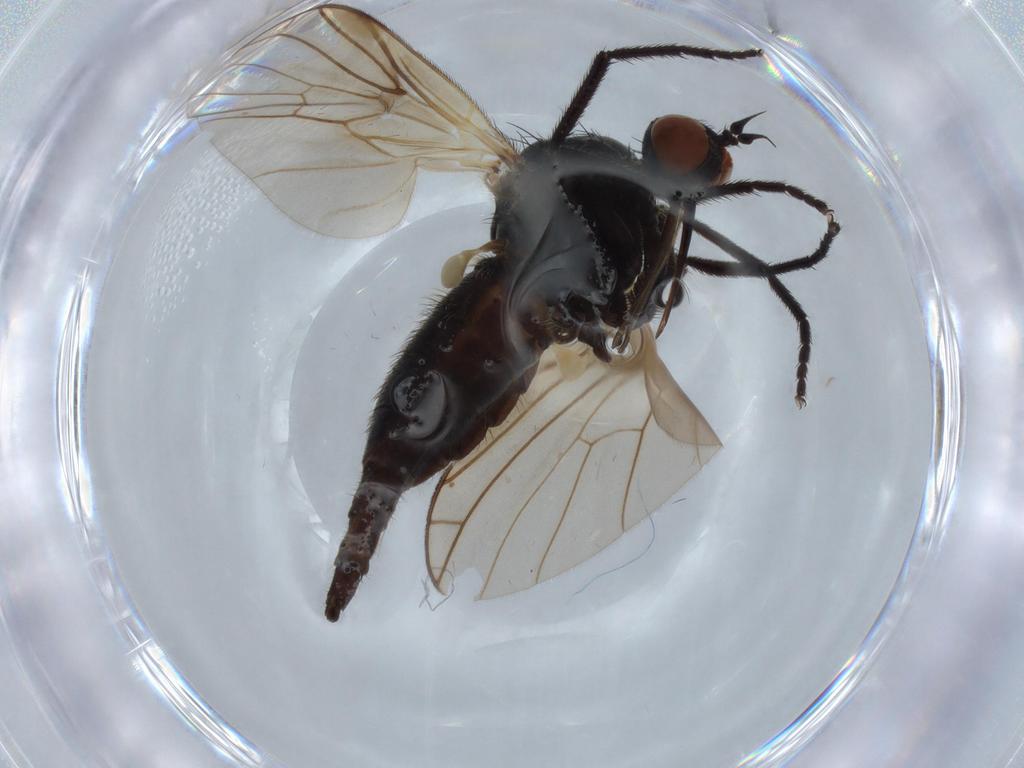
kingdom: Animalia
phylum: Arthropoda
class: Insecta
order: Diptera
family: Empididae
